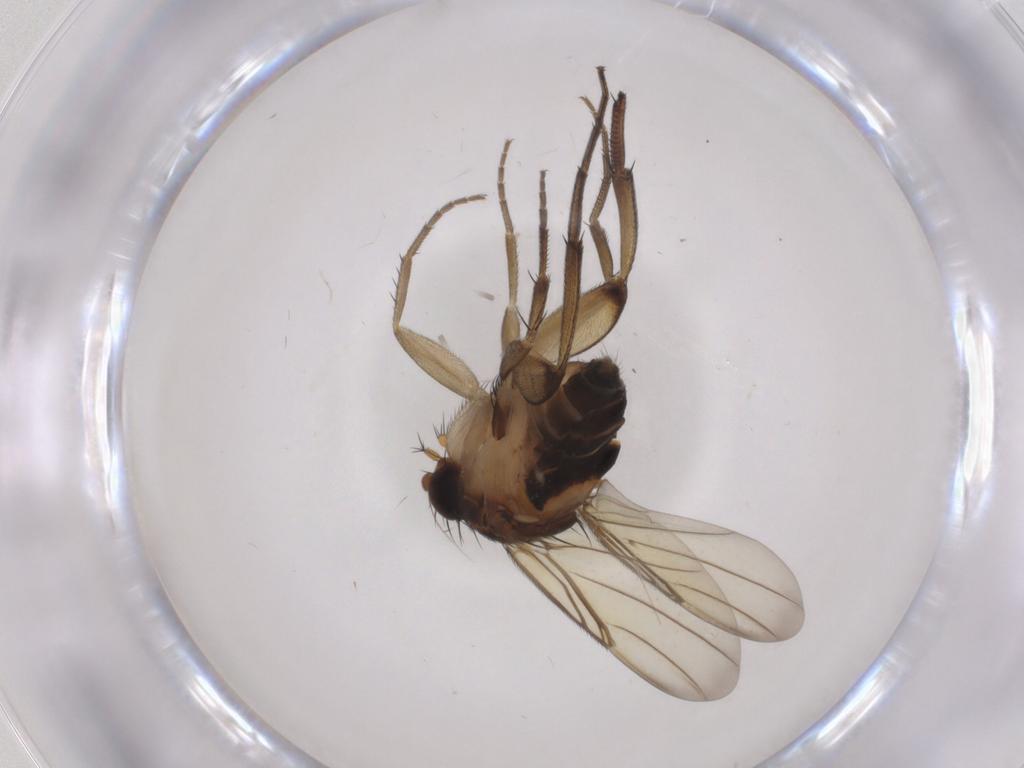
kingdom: Animalia
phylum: Arthropoda
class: Insecta
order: Diptera
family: Phoridae
